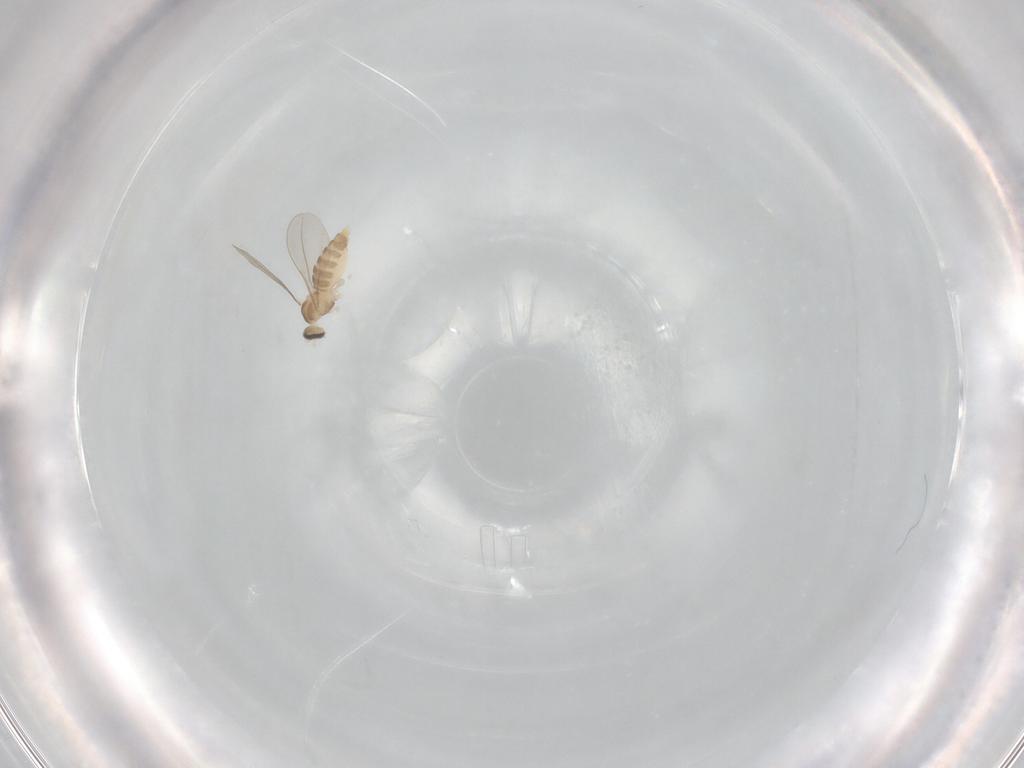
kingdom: Animalia
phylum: Arthropoda
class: Insecta
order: Diptera
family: Cecidomyiidae
